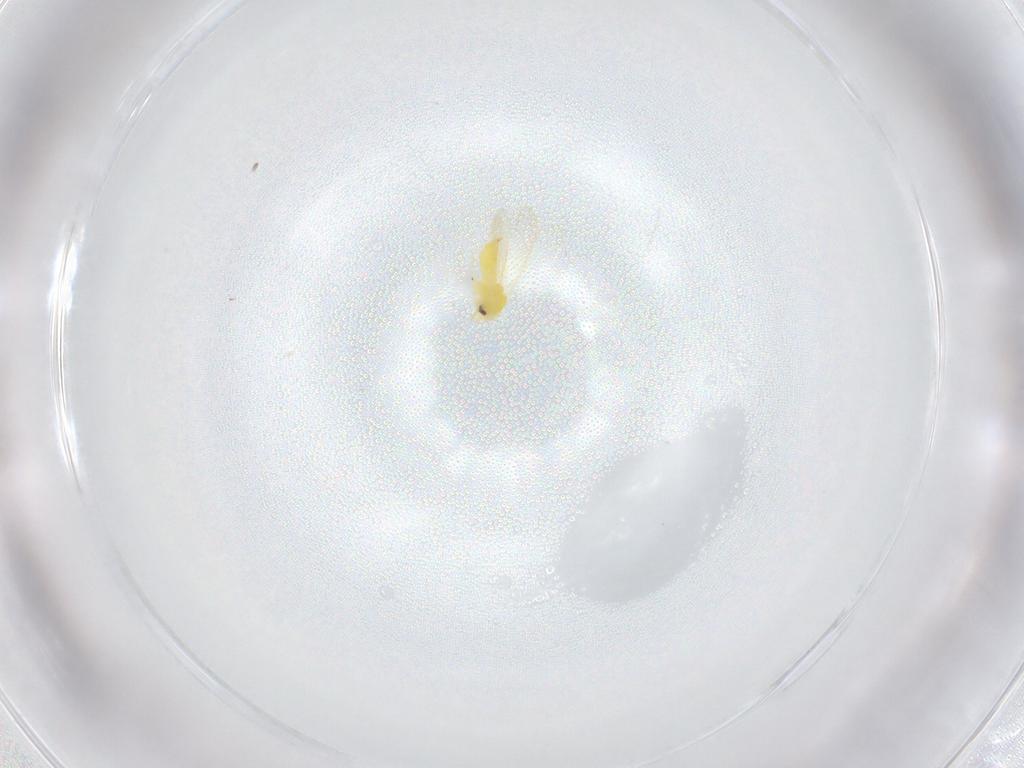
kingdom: Animalia
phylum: Arthropoda
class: Insecta
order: Hemiptera
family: Aleyrodidae
